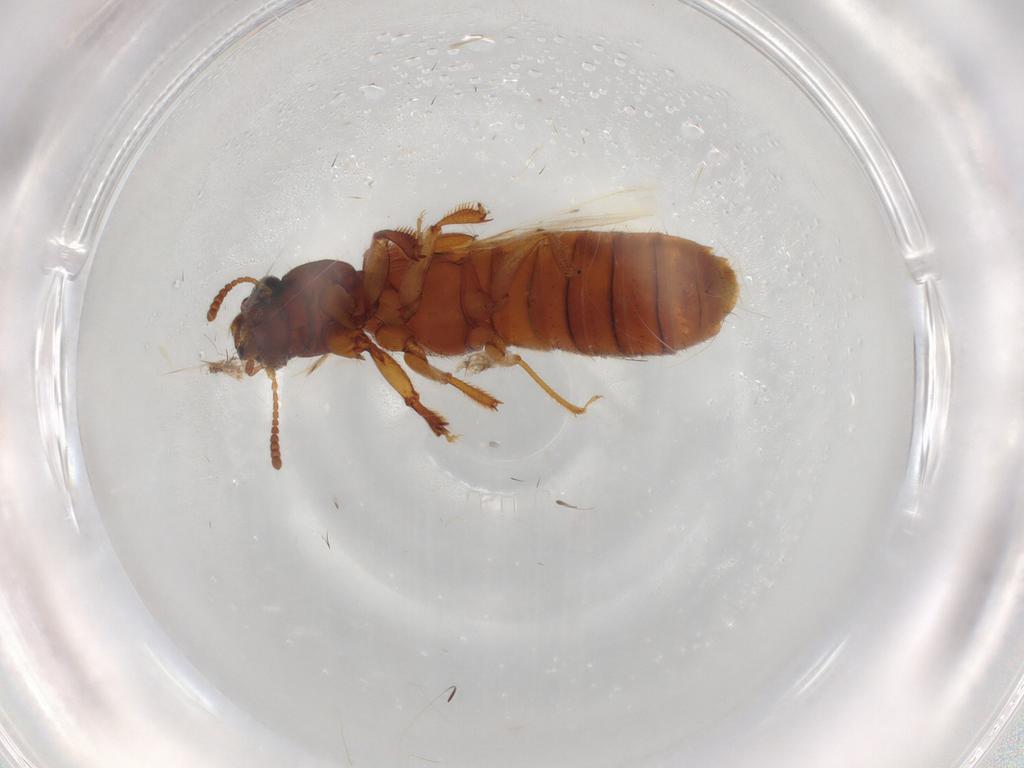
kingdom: Animalia
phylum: Arthropoda
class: Insecta
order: Coleoptera
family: Staphylinidae
